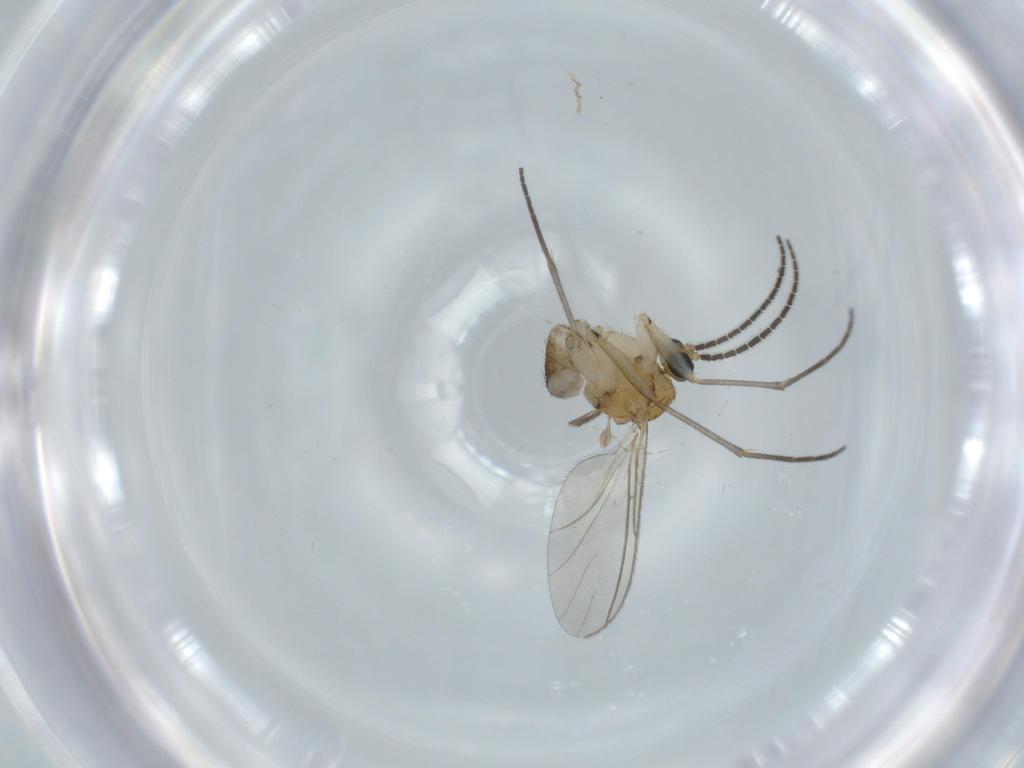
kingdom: Animalia
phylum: Arthropoda
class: Insecta
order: Diptera
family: Sciaridae
